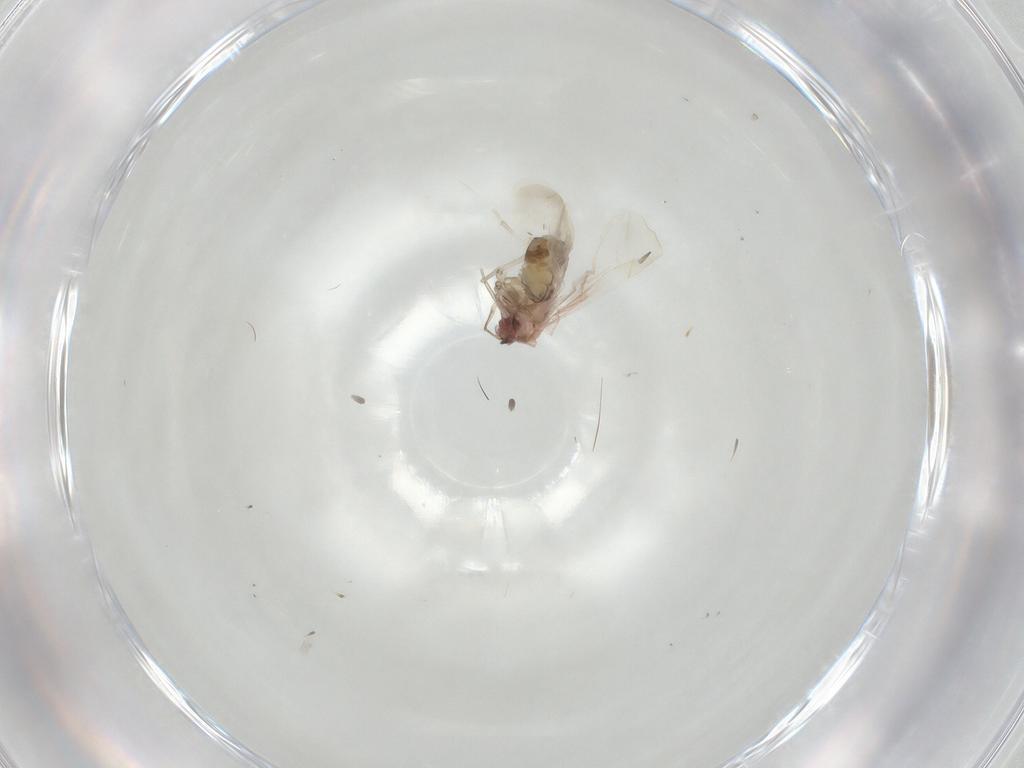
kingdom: Animalia
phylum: Arthropoda
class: Insecta
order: Hemiptera
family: Aleyrodidae
